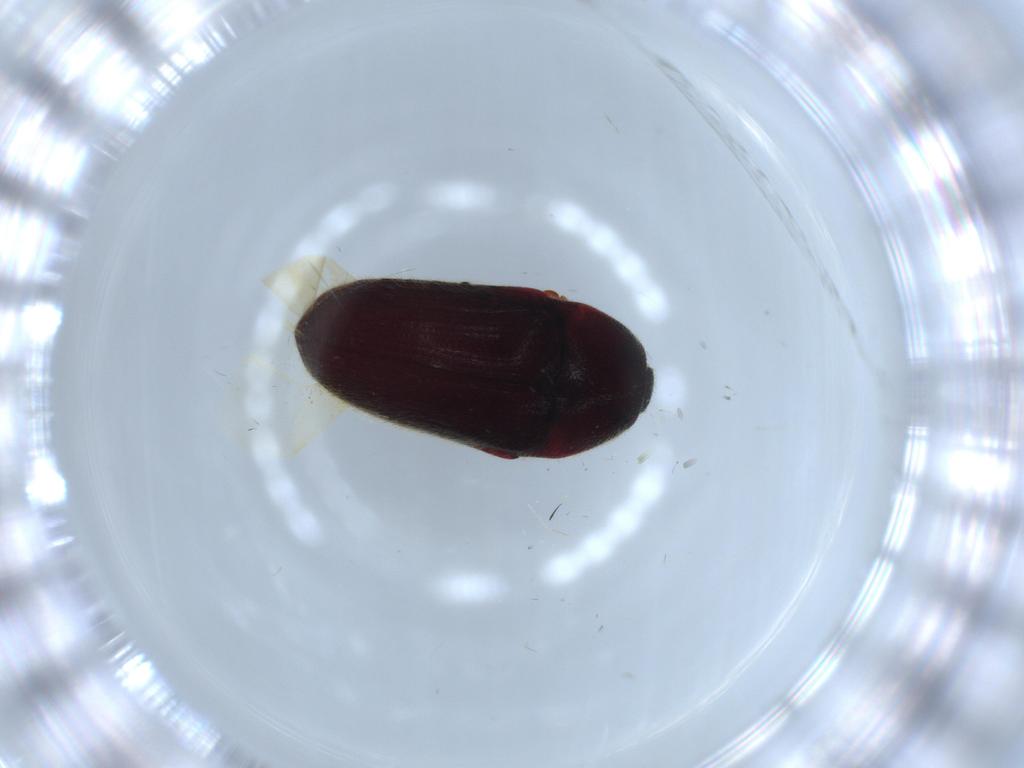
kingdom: Animalia
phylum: Arthropoda
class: Insecta
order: Coleoptera
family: Throscidae
